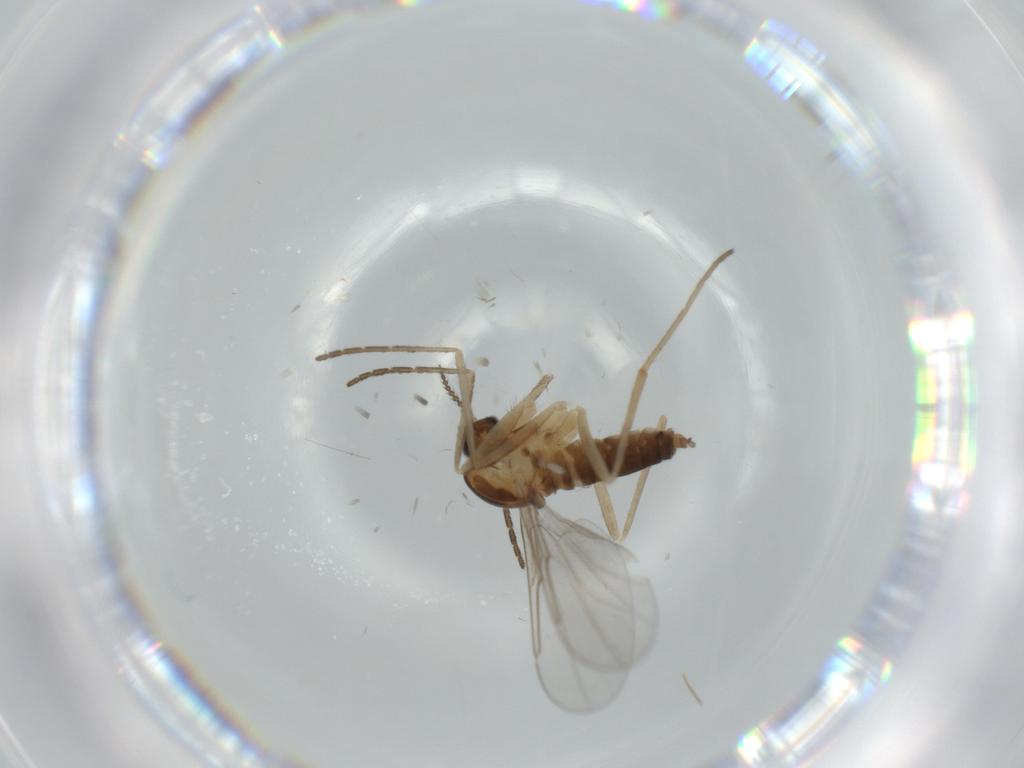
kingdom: Animalia
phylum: Arthropoda
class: Insecta
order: Diptera
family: Cecidomyiidae
